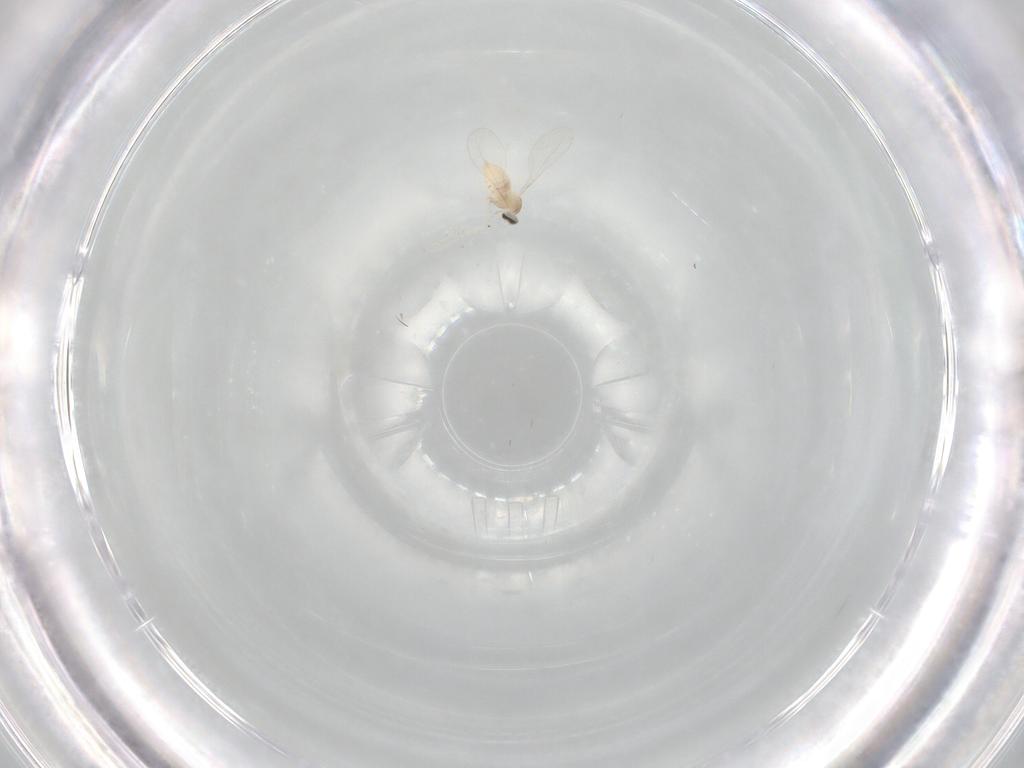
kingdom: Animalia
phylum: Arthropoda
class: Insecta
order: Diptera
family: Cecidomyiidae
